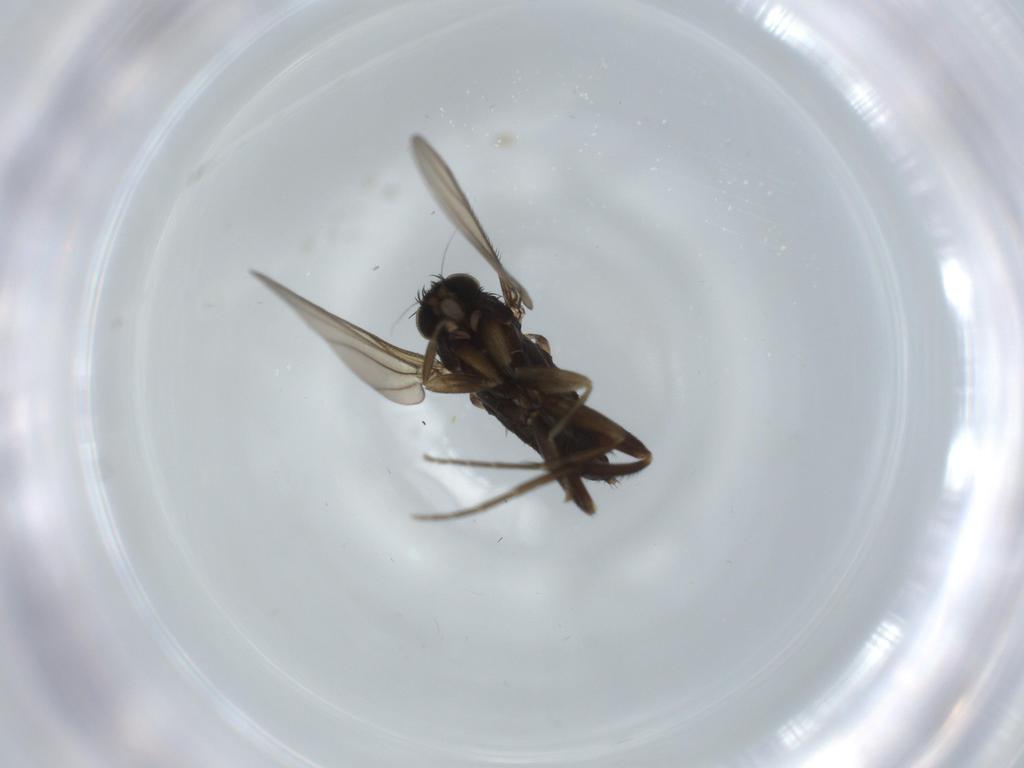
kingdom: Animalia
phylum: Arthropoda
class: Insecta
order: Diptera
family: Phoridae
